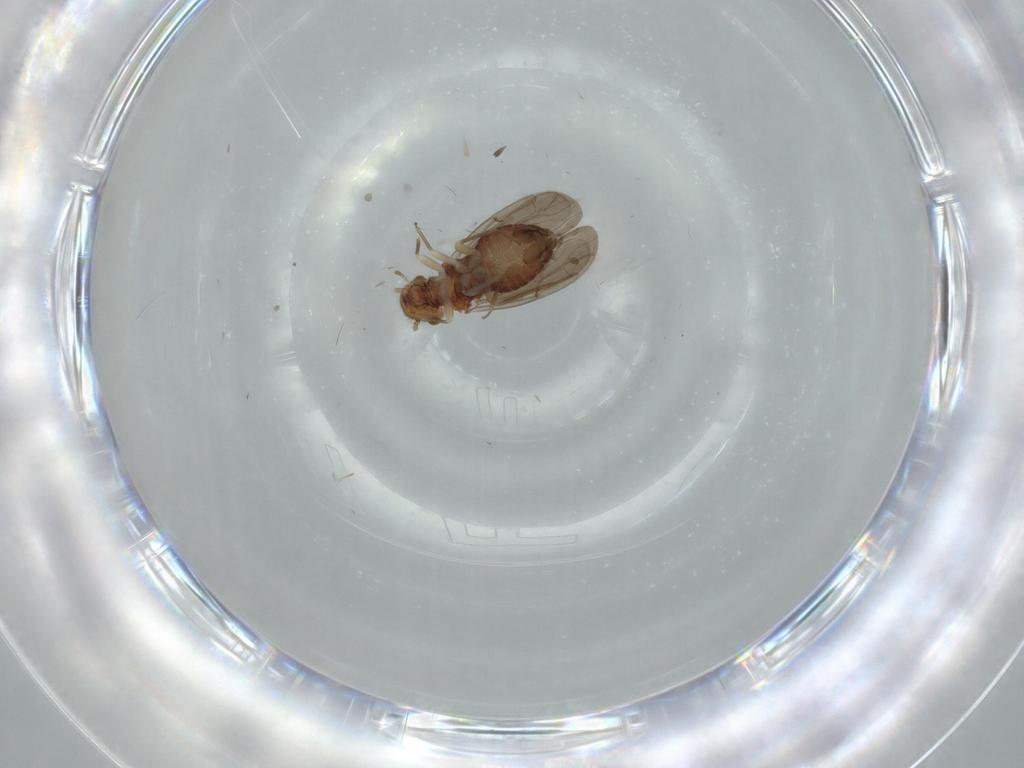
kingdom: Animalia
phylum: Arthropoda
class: Insecta
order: Psocodea
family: Ectopsocidae
